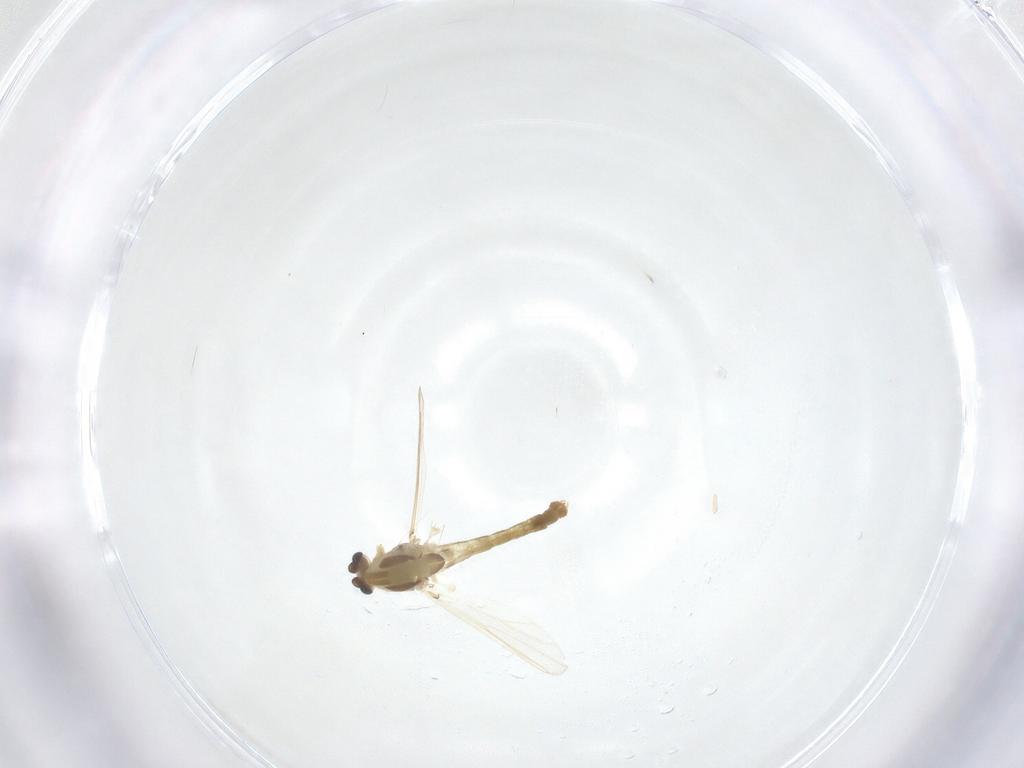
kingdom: Animalia
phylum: Arthropoda
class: Insecta
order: Diptera
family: Chironomidae
